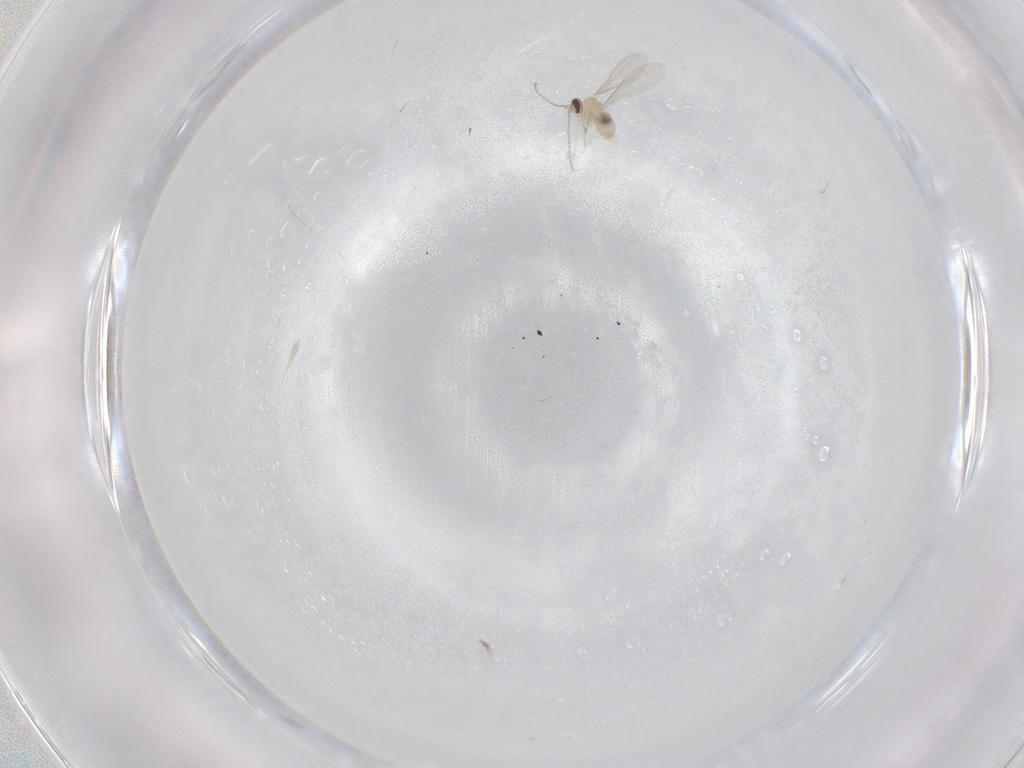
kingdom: Animalia
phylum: Arthropoda
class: Insecta
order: Diptera
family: Cecidomyiidae
